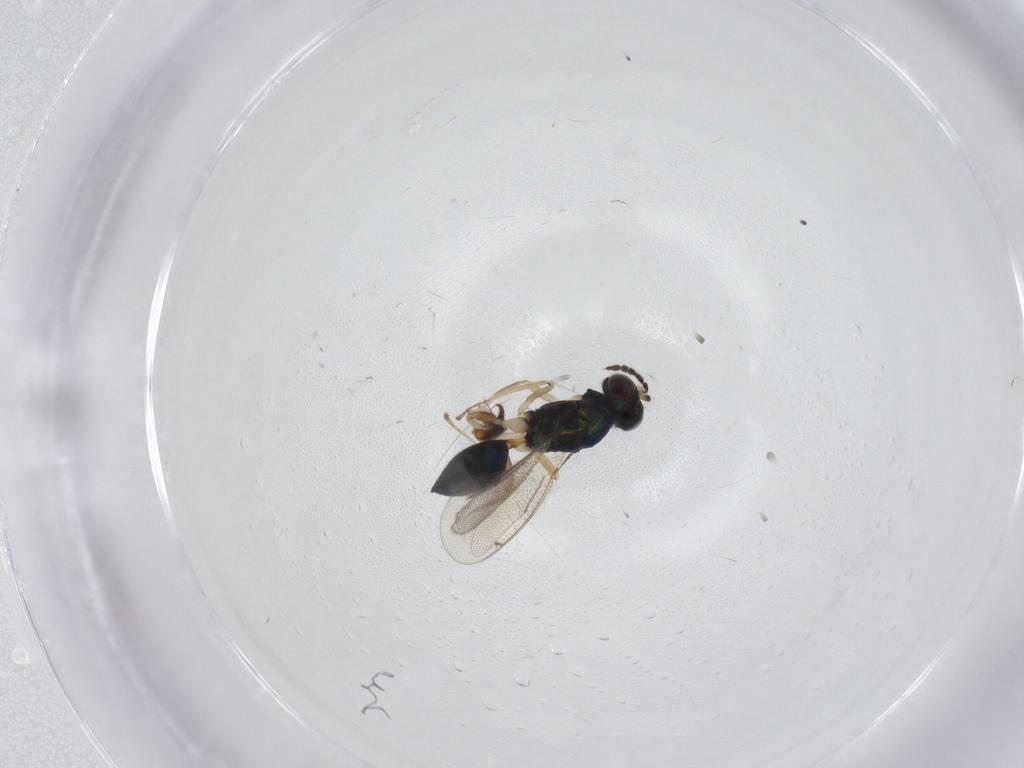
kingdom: Animalia
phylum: Arthropoda
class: Insecta
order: Hymenoptera
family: Eulophidae
